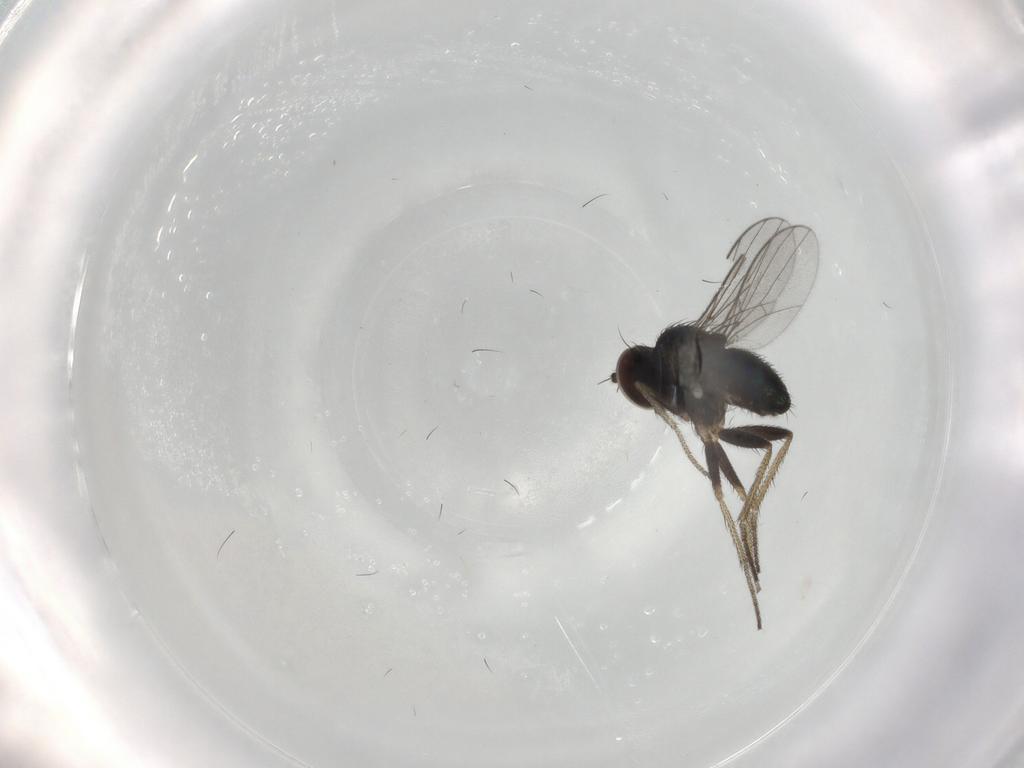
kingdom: Animalia
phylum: Arthropoda
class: Insecta
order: Diptera
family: Dolichopodidae
